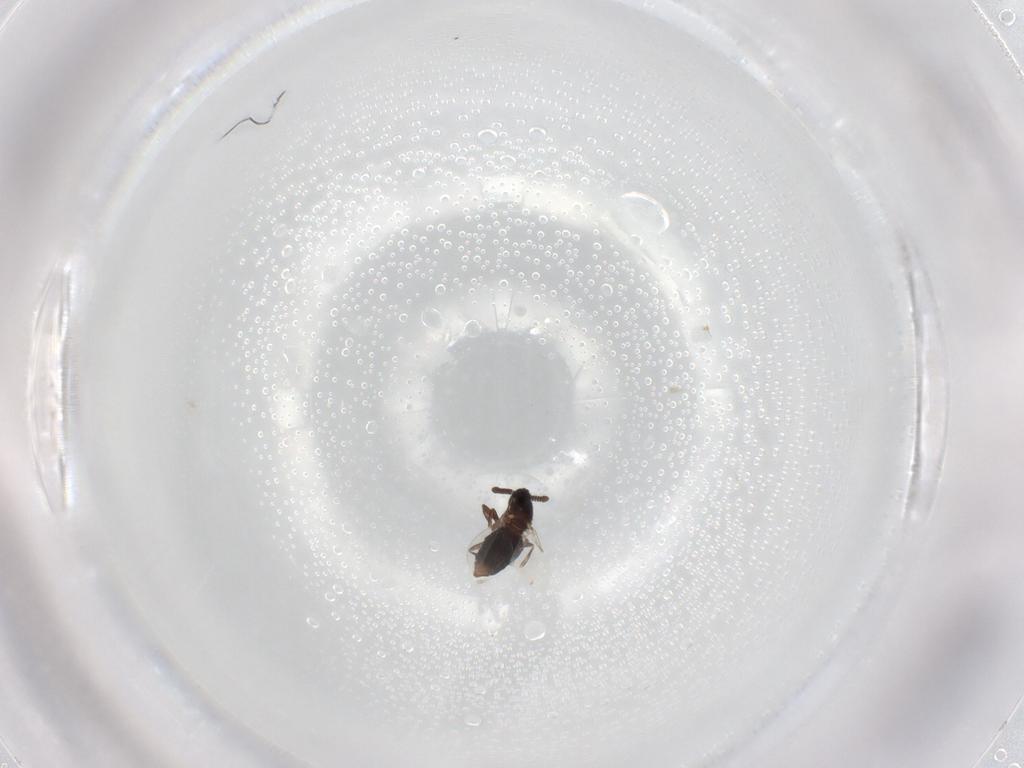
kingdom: Animalia
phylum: Arthropoda
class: Insecta
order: Diptera
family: Scatopsidae
